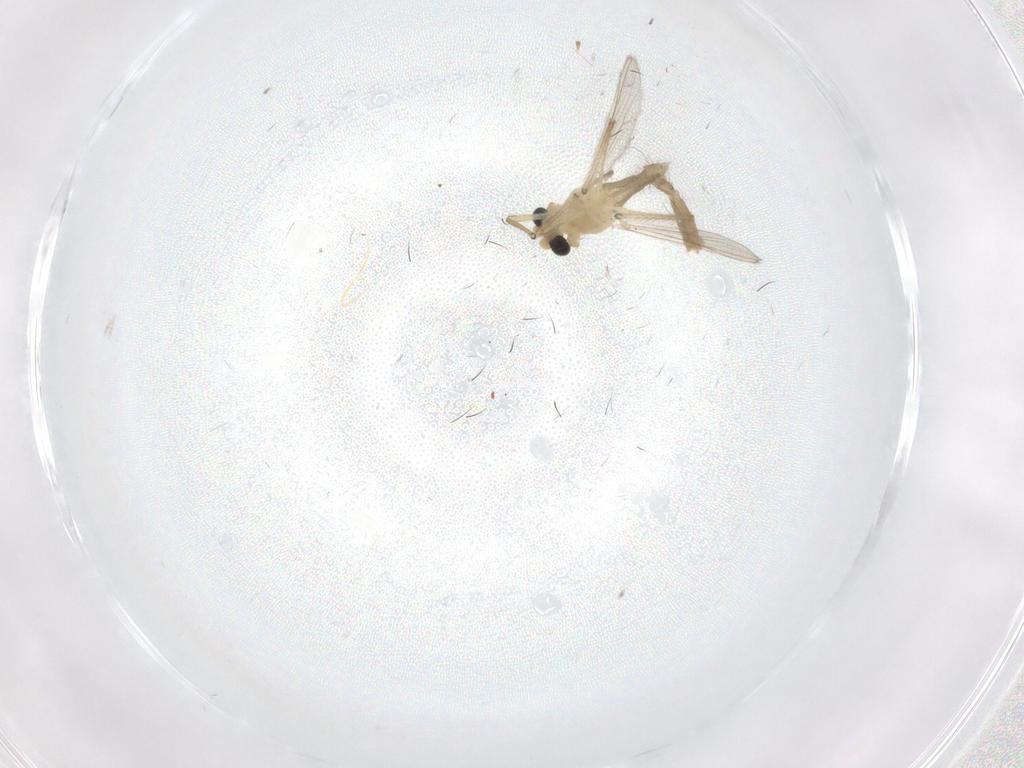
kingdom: Animalia
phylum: Arthropoda
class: Insecta
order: Diptera
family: Chironomidae
